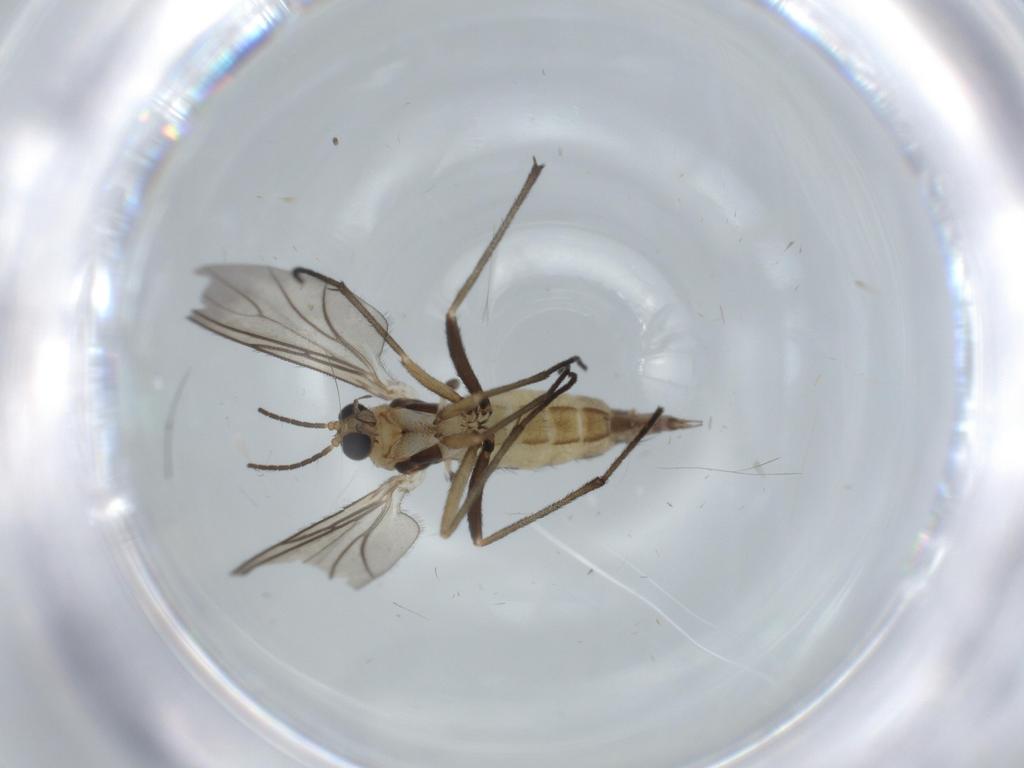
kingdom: Animalia
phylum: Arthropoda
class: Insecta
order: Diptera
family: Sciaridae
